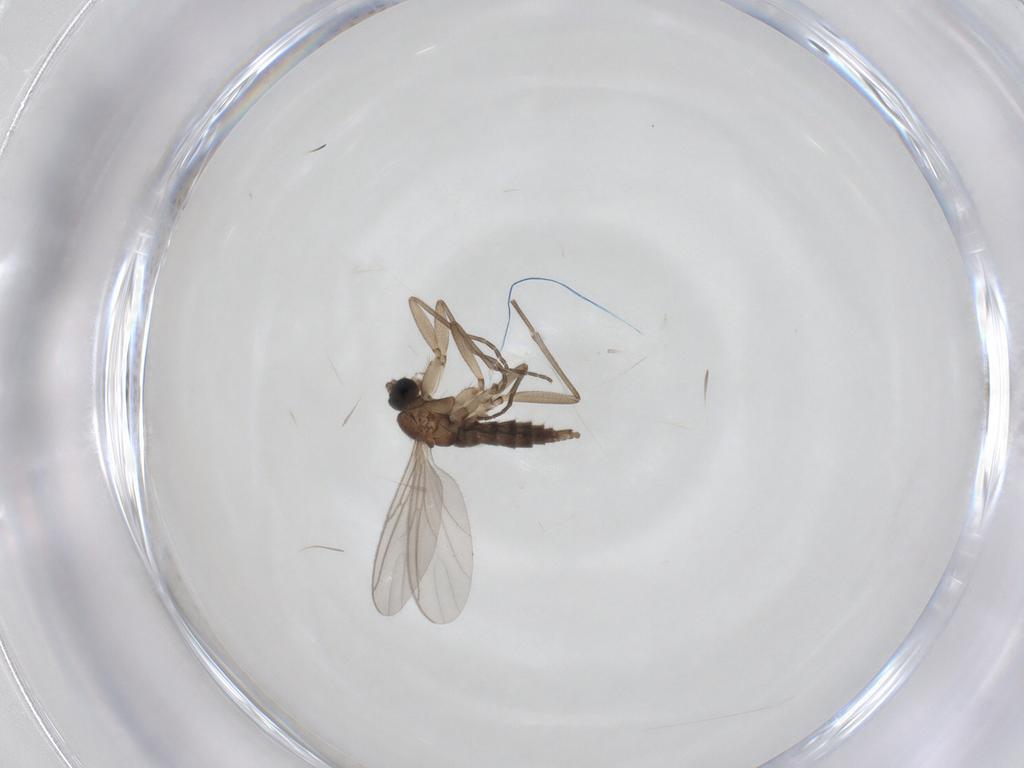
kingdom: Animalia
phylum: Arthropoda
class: Insecta
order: Diptera
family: Sciaridae
